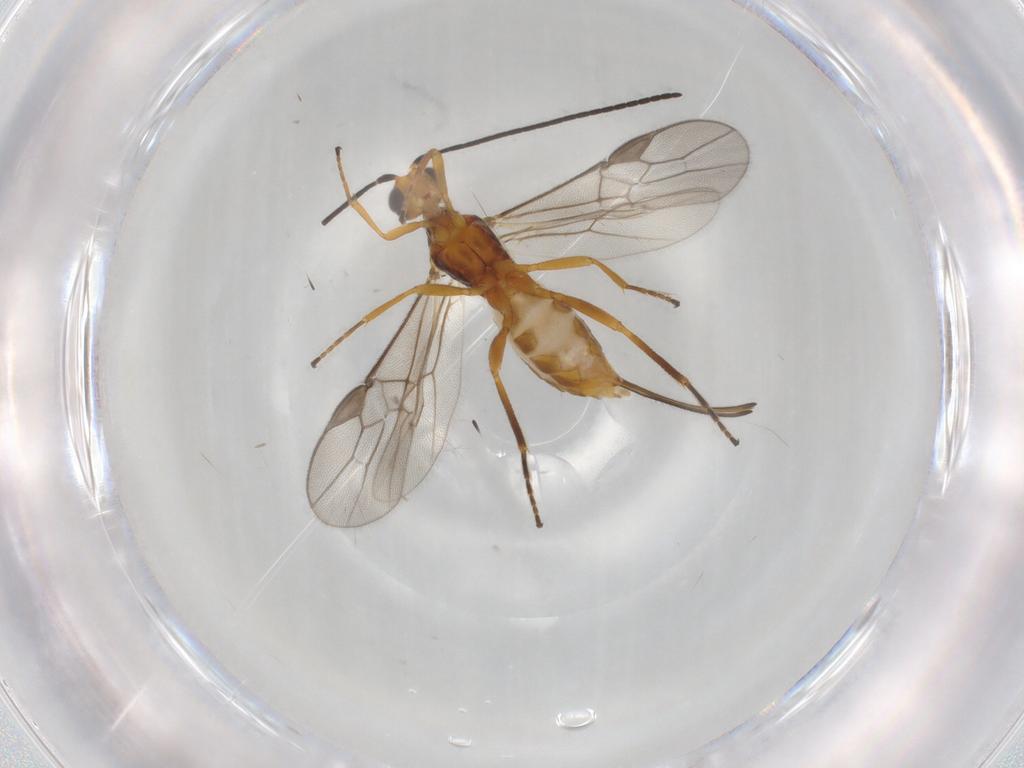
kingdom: Animalia
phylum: Arthropoda
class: Insecta
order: Hymenoptera
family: Braconidae
